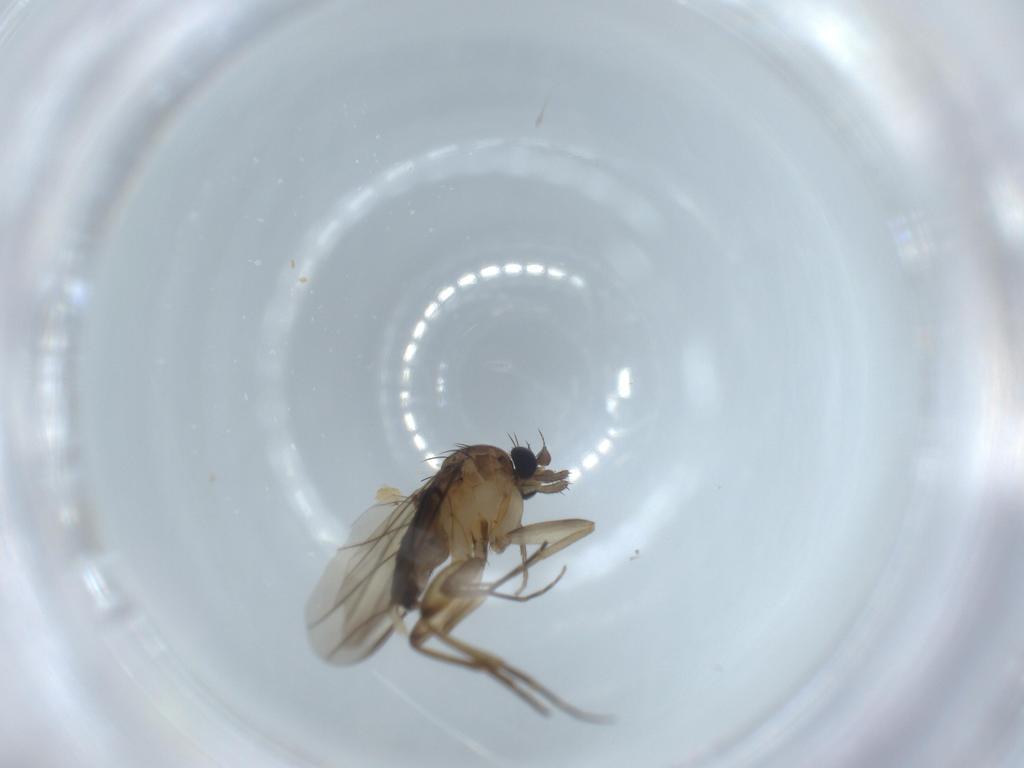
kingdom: Animalia
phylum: Arthropoda
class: Insecta
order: Diptera
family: Phoridae
